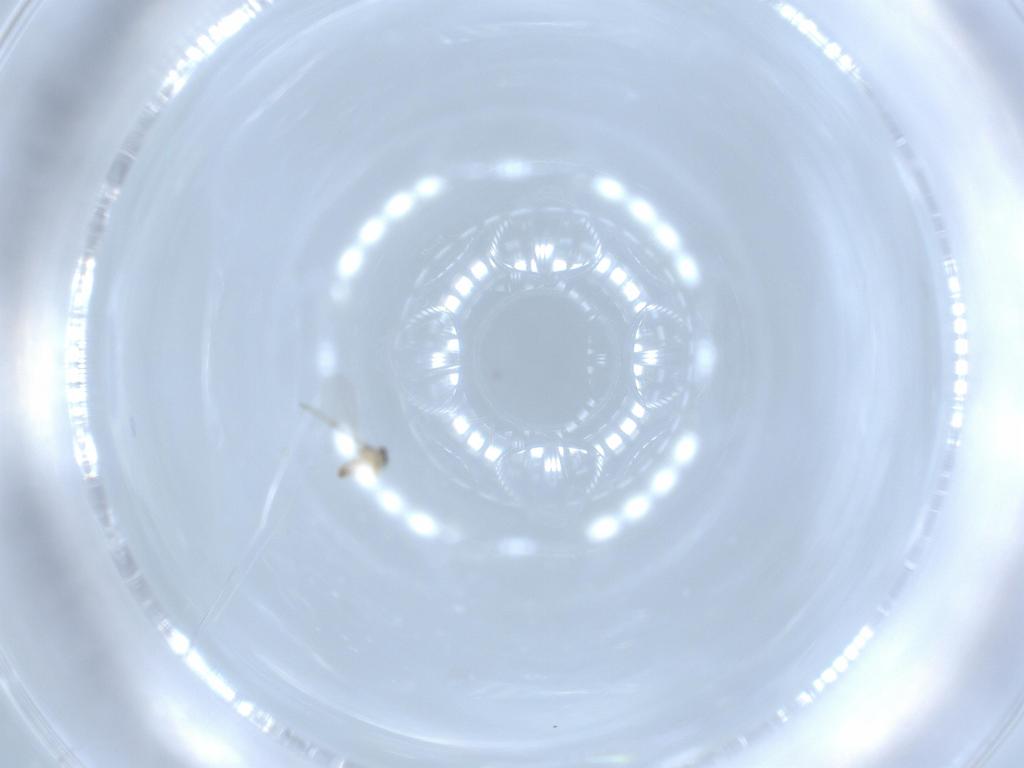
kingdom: Animalia
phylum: Arthropoda
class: Insecta
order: Diptera
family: Cecidomyiidae
